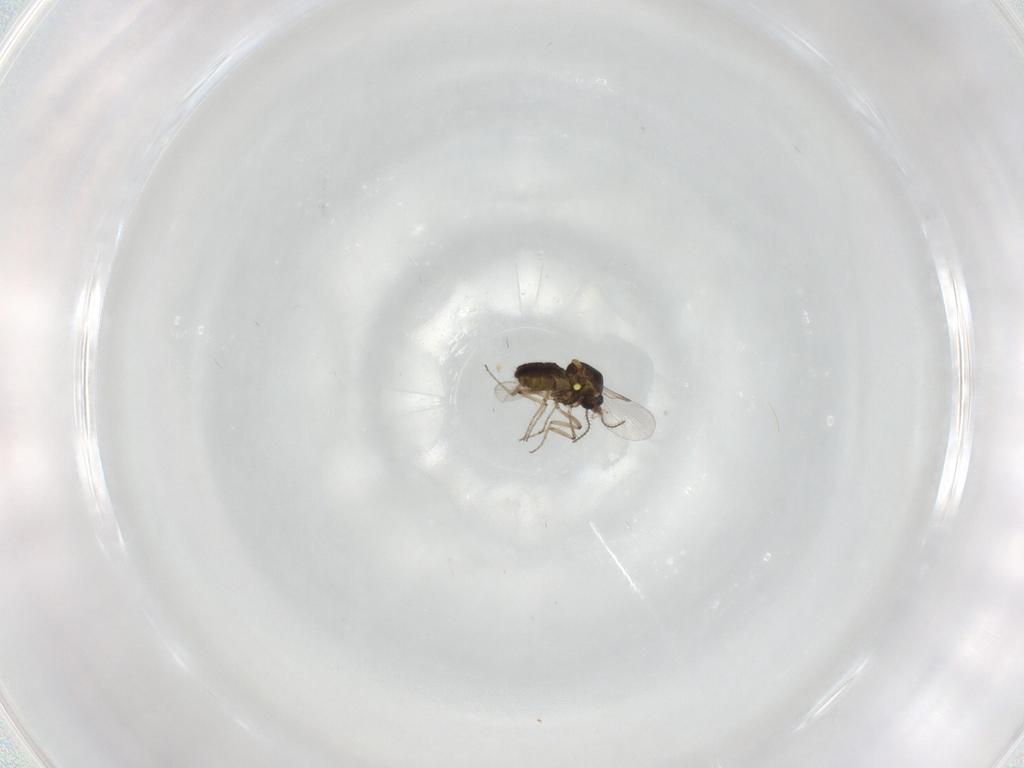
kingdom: Animalia
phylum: Arthropoda
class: Insecta
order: Diptera
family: Ceratopogonidae
